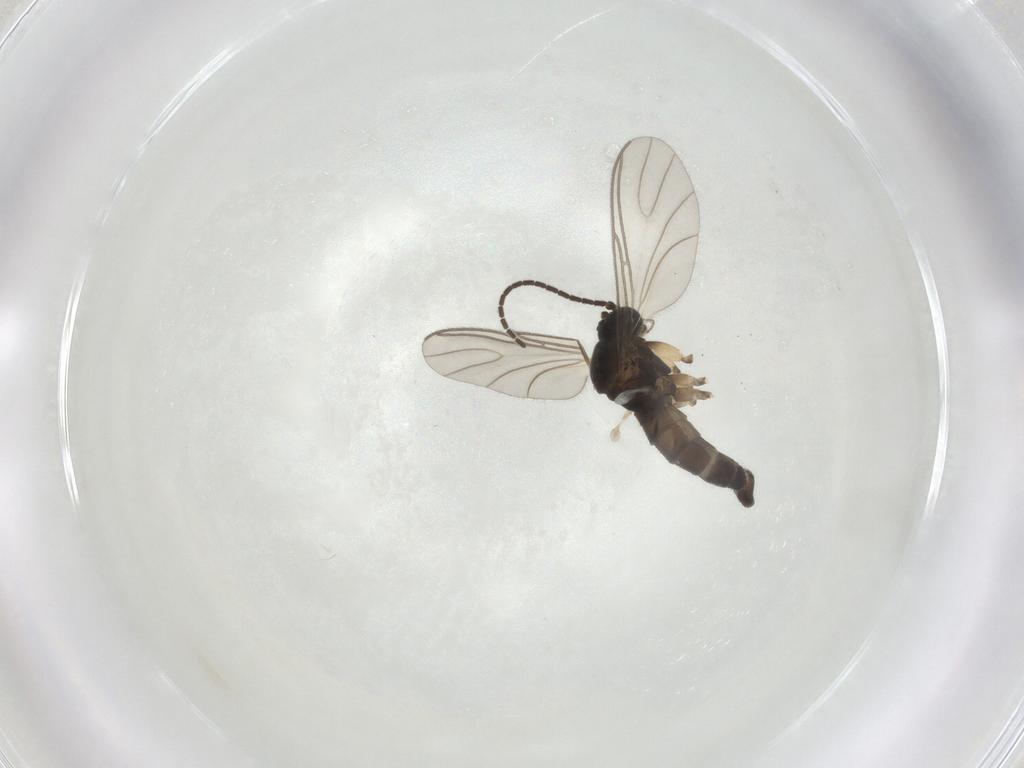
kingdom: Animalia
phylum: Arthropoda
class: Insecta
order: Diptera
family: Sciaridae
